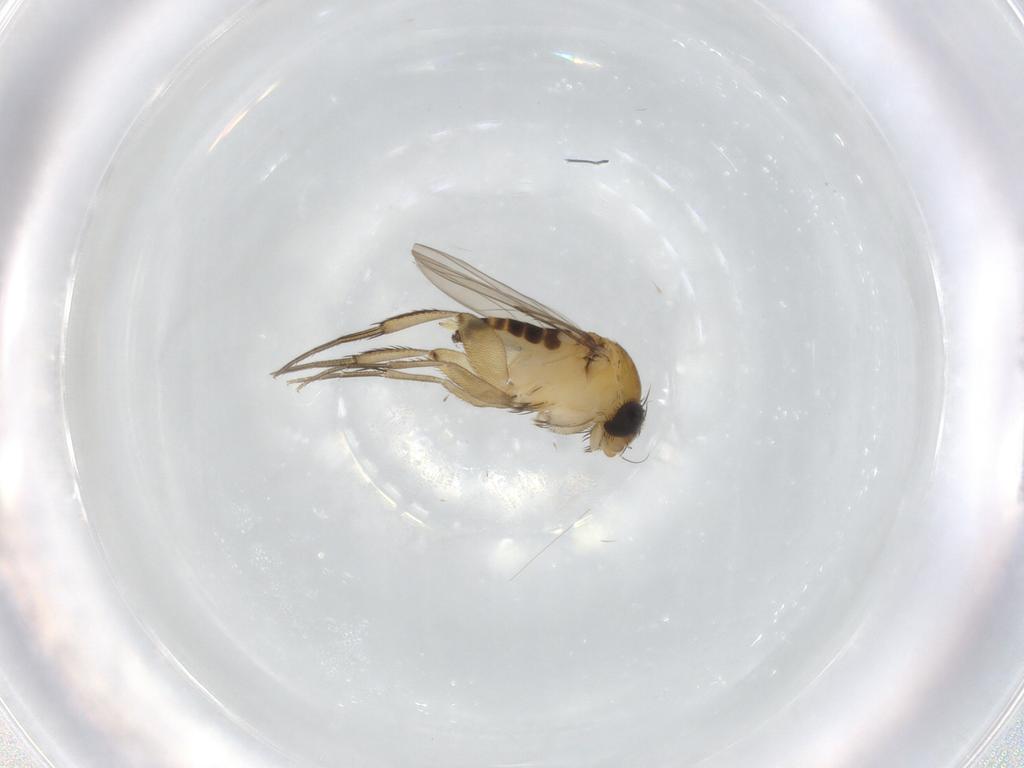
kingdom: Animalia
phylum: Arthropoda
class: Insecta
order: Diptera
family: Phoridae
